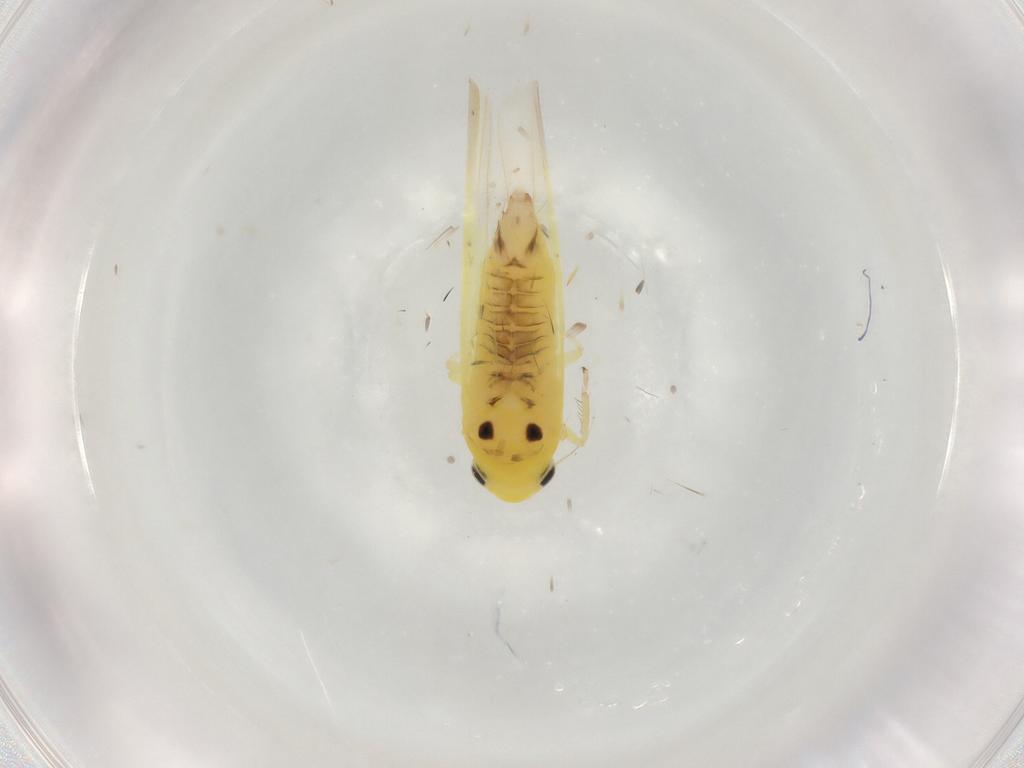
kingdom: Animalia
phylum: Arthropoda
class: Insecta
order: Hemiptera
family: Cicadellidae
